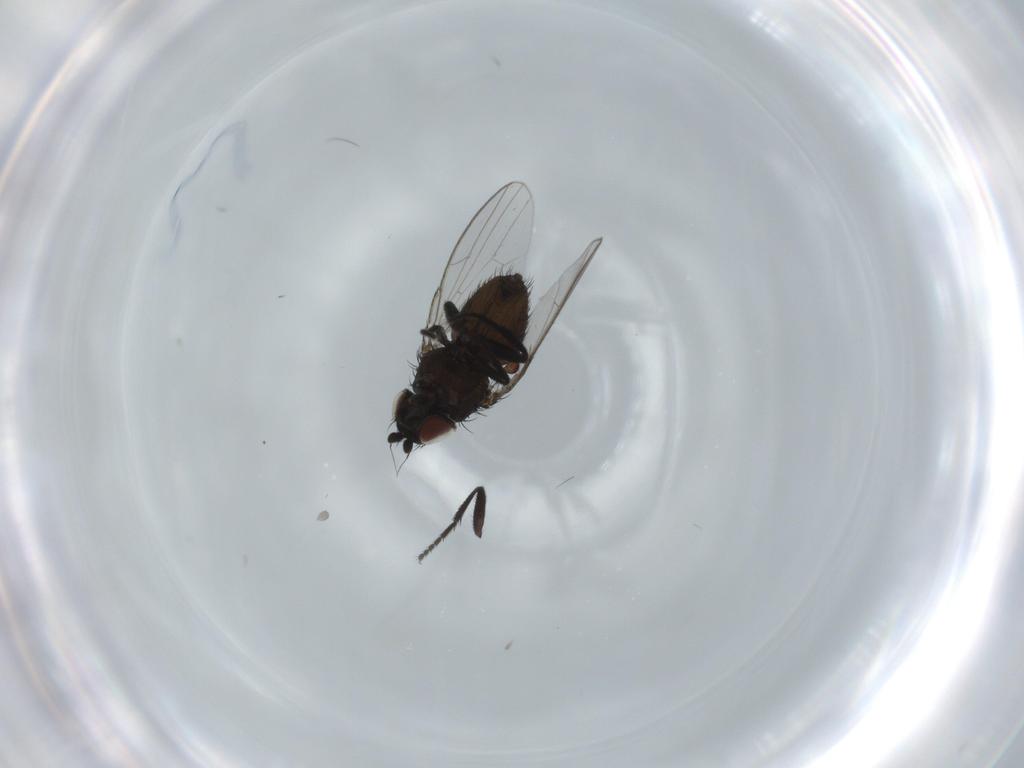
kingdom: Animalia
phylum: Arthropoda
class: Insecta
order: Diptera
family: Milichiidae
